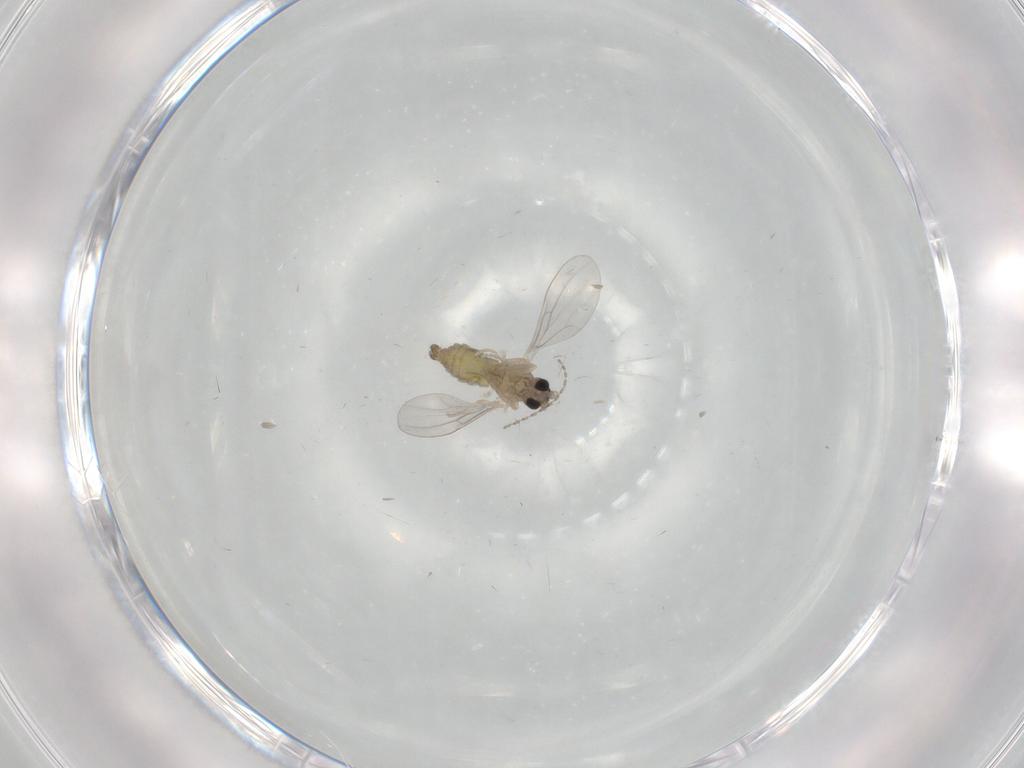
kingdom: Animalia
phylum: Arthropoda
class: Insecta
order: Diptera
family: Cecidomyiidae
